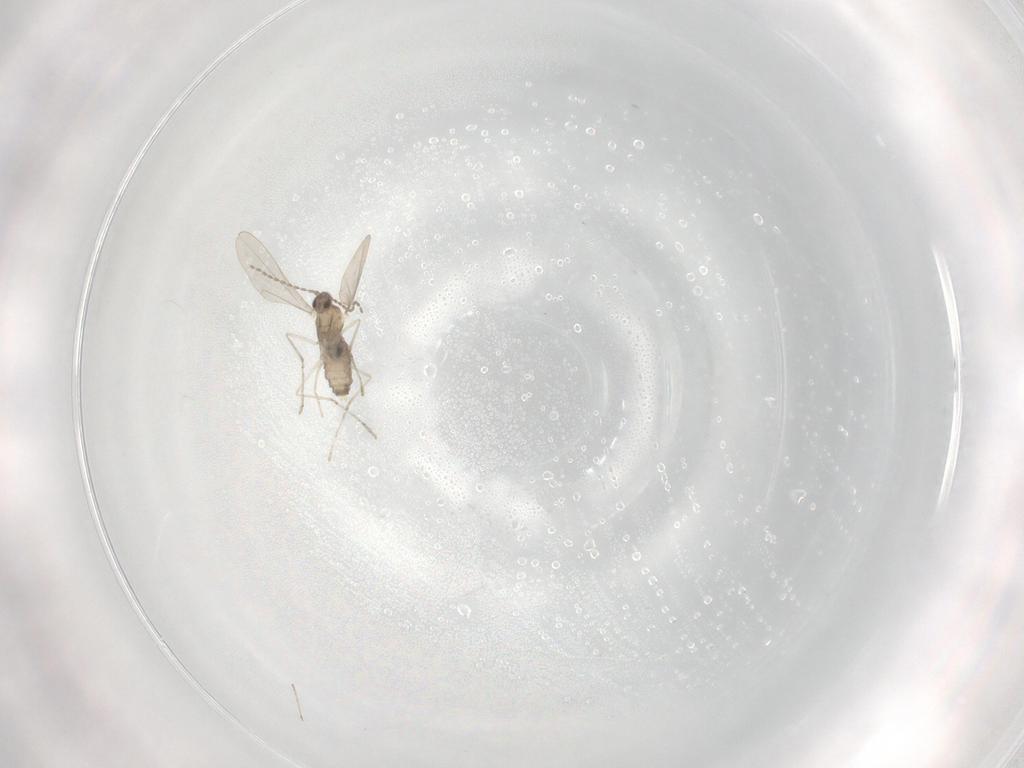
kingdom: Animalia
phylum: Arthropoda
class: Insecta
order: Diptera
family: Cecidomyiidae
